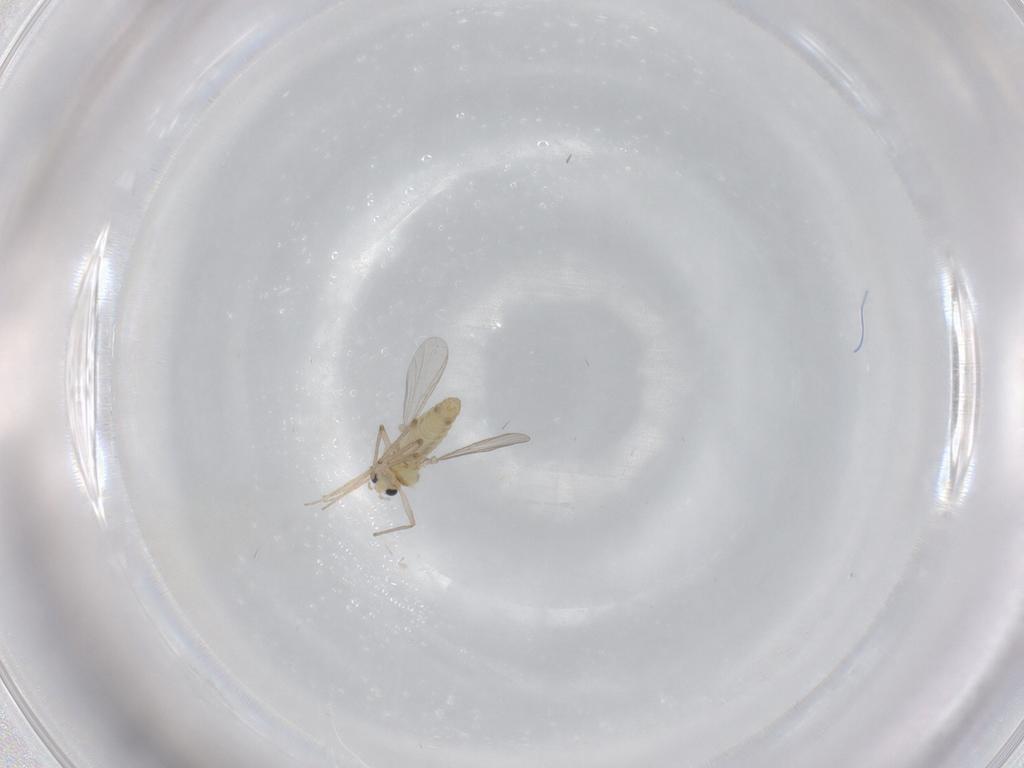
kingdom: Animalia
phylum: Arthropoda
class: Insecta
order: Diptera
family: Chironomidae
